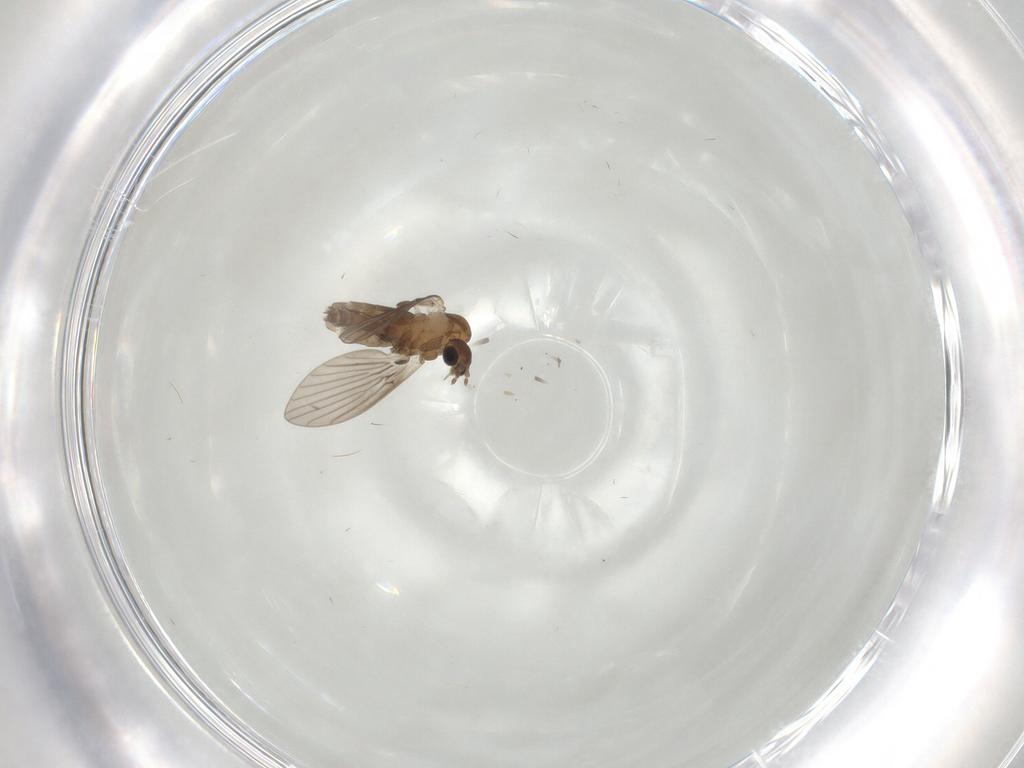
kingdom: Animalia
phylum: Arthropoda
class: Insecta
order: Diptera
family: Psychodidae
